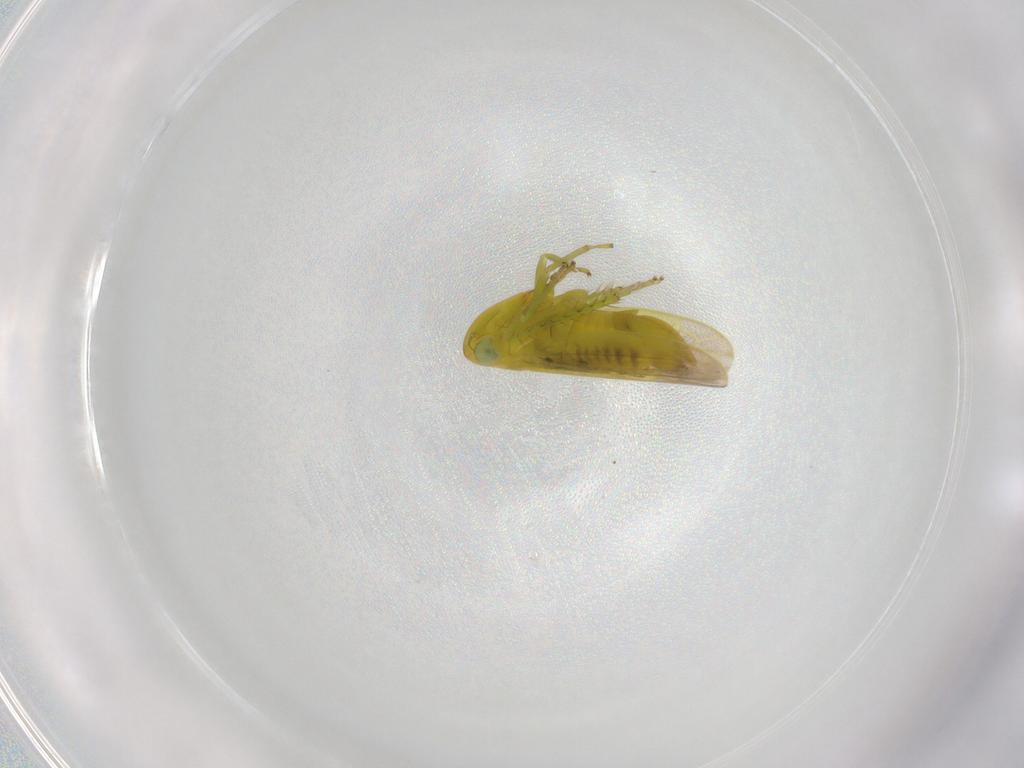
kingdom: Animalia
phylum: Arthropoda
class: Insecta
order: Hemiptera
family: Cicadellidae
